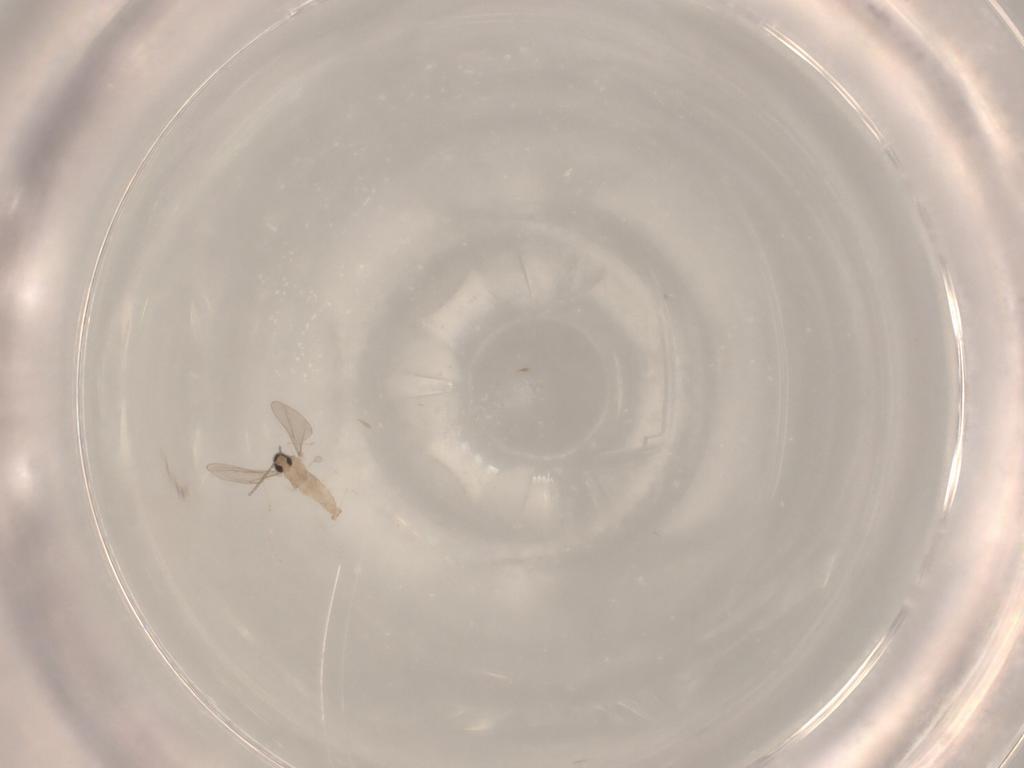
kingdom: Animalia
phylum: Arthropoda
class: Insecta
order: Diptera
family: Cecidomyiidae
